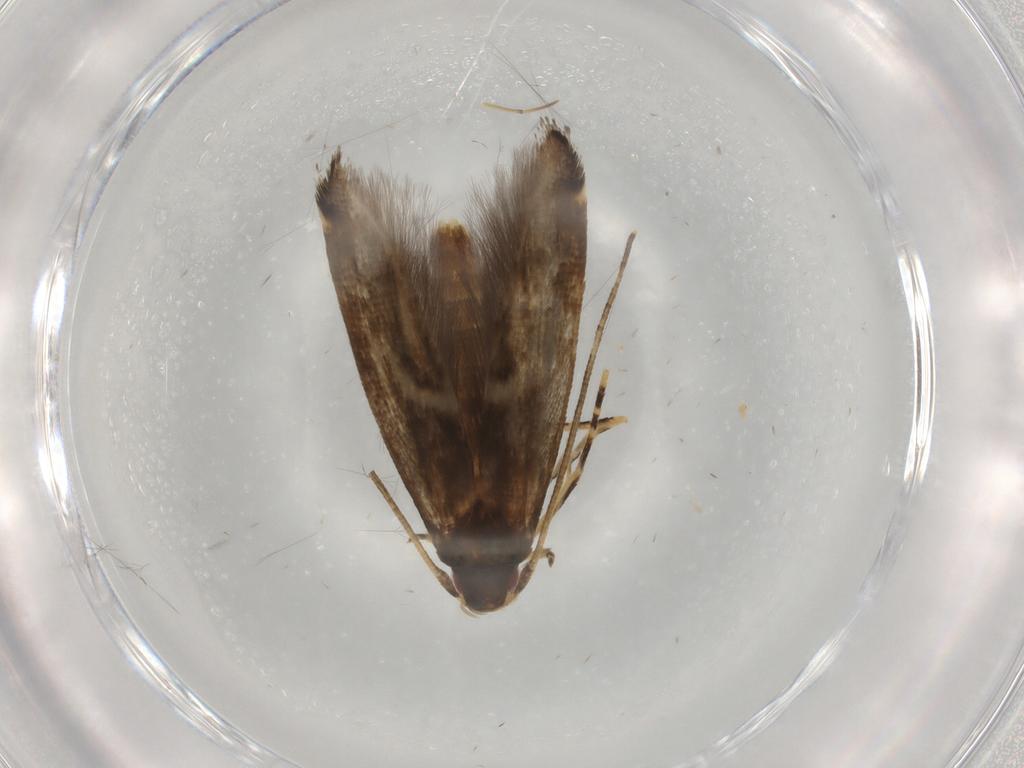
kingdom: Animalia
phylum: Arthropoda
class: Insecta
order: Lepidoptera
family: Momphidae
